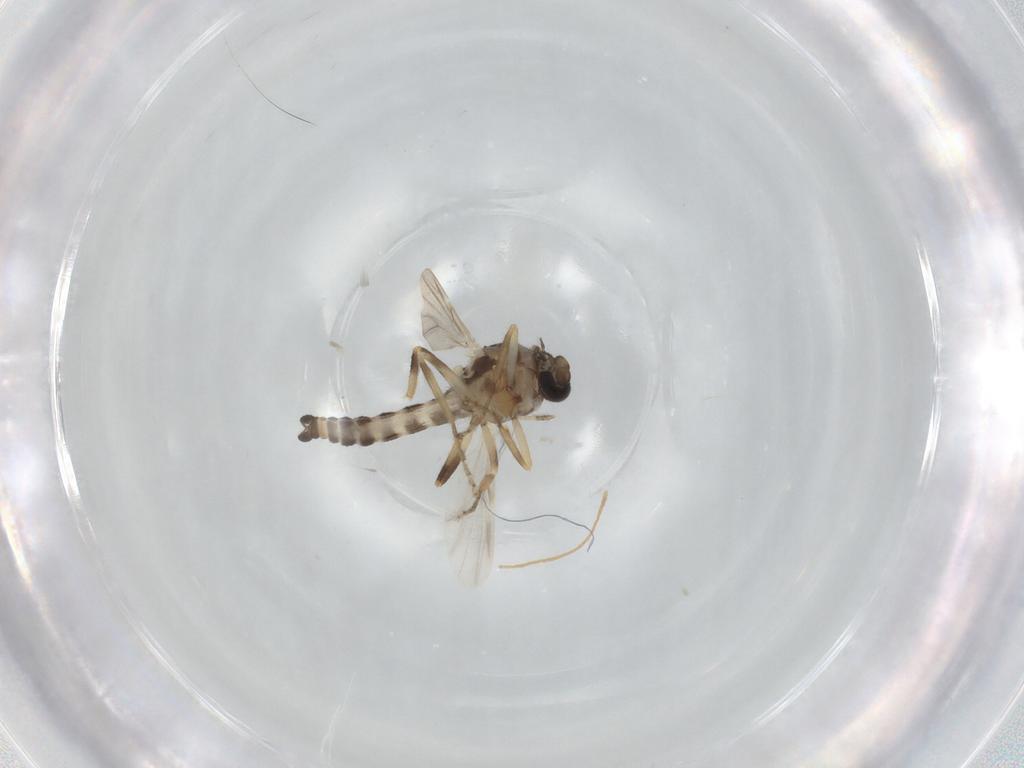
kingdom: Animalia
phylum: Arthropoda
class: Insecta
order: Diptera
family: Ceratopogonidae
